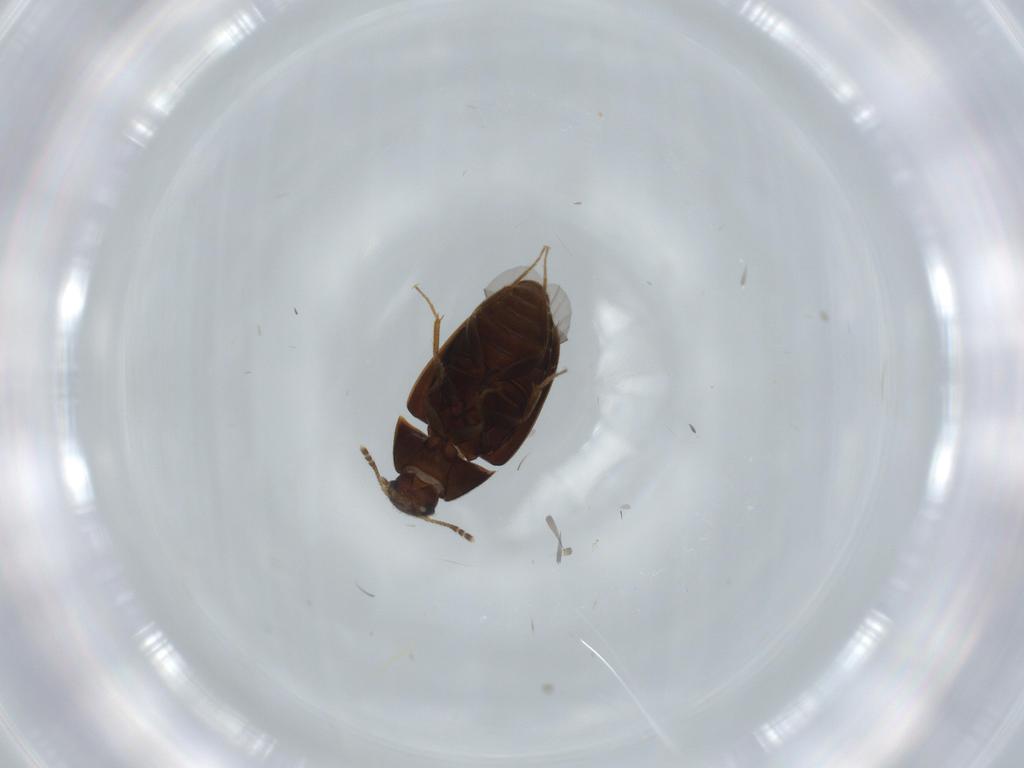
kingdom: Animalia
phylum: Arthropoda
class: Insecta
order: Coleoptera
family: Mycetophagidae
